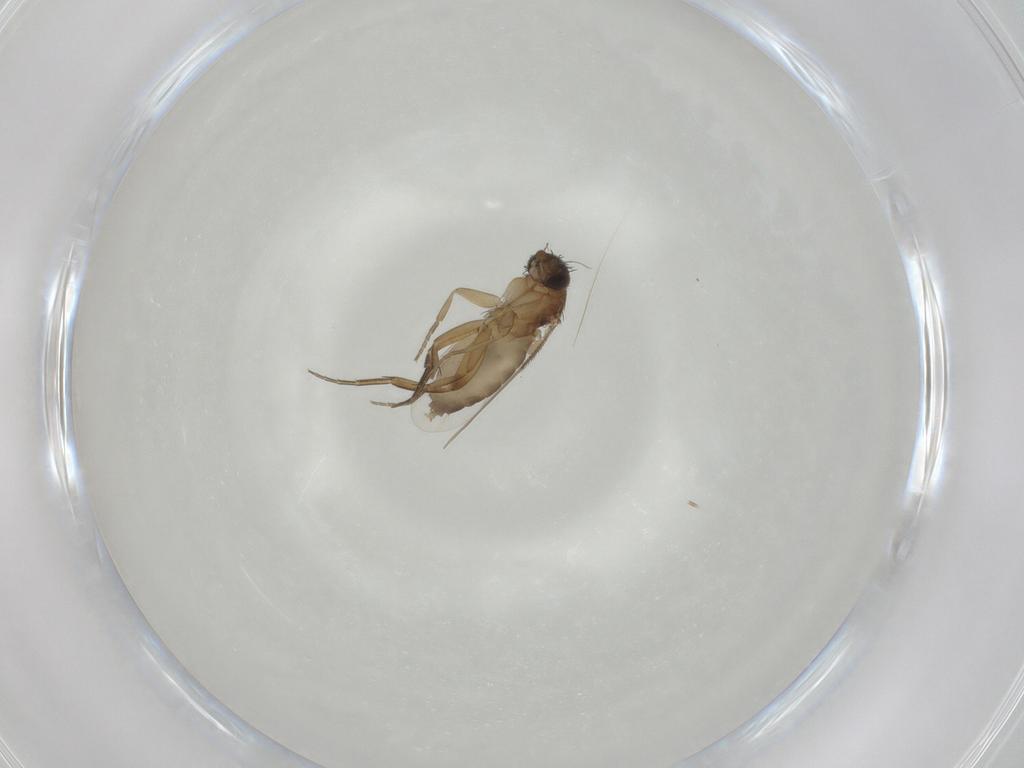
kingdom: Animalia
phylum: Arthropoda
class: Insecta
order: Diptera
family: Phoridae
